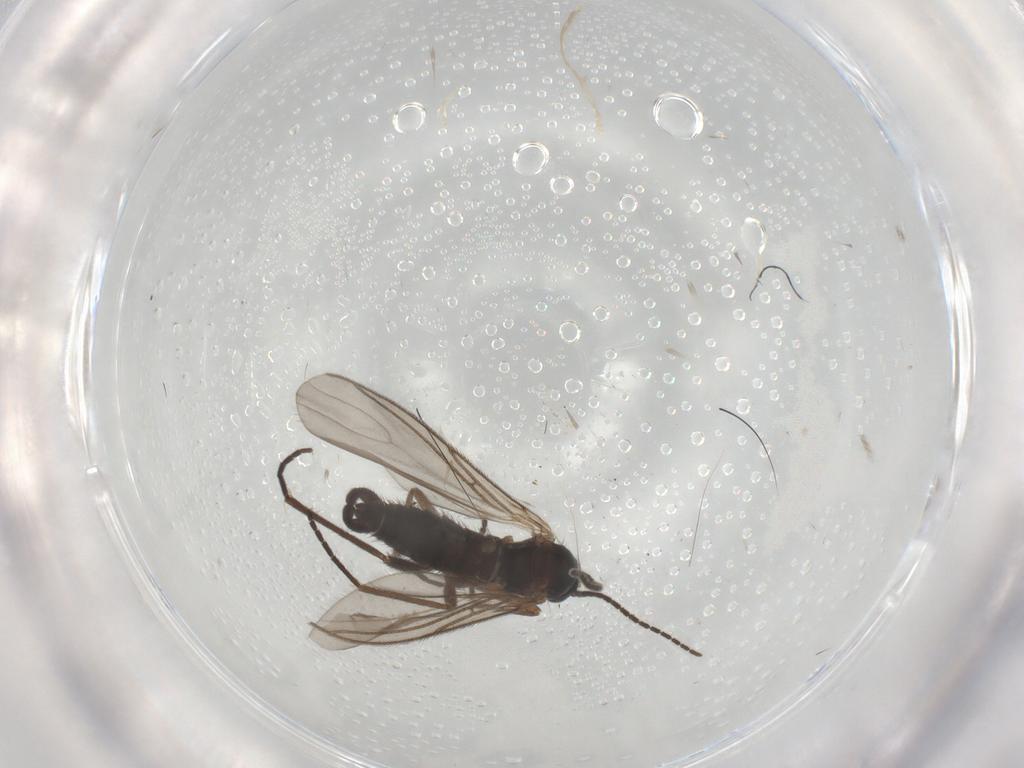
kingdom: Animalia
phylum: Arthropoda
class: Insecta
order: Diptera
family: Sciaridae
